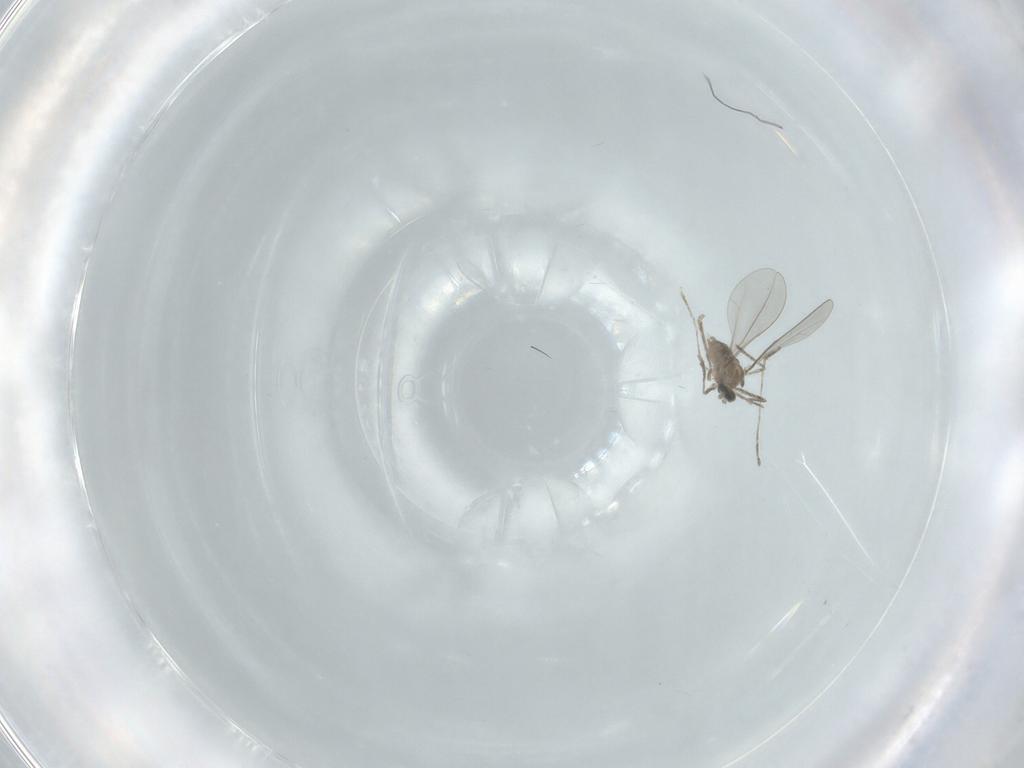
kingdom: Animalia
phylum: Arthropoda
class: Insecta
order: Diptera
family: Cecidomyiidae
